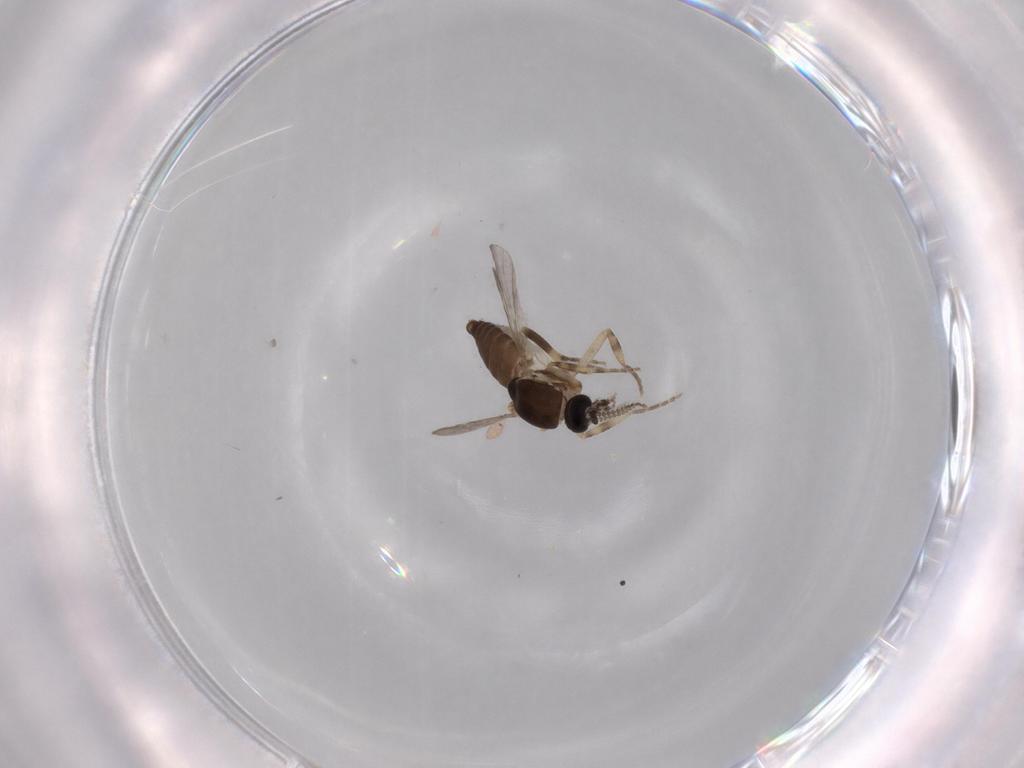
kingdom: Animalia
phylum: Arthropoda
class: Insecta
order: Diptera
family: Ceratopogonidae
